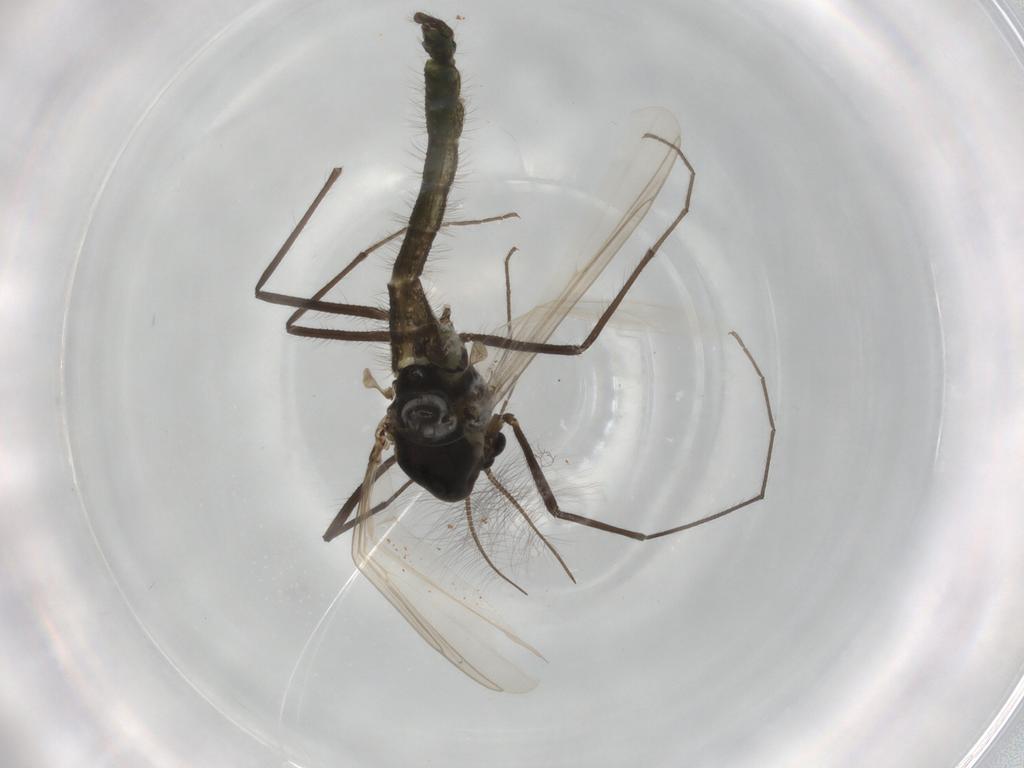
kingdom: Animalia
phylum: Arthropoda
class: Insecta
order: Diptera
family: Chironomidae
